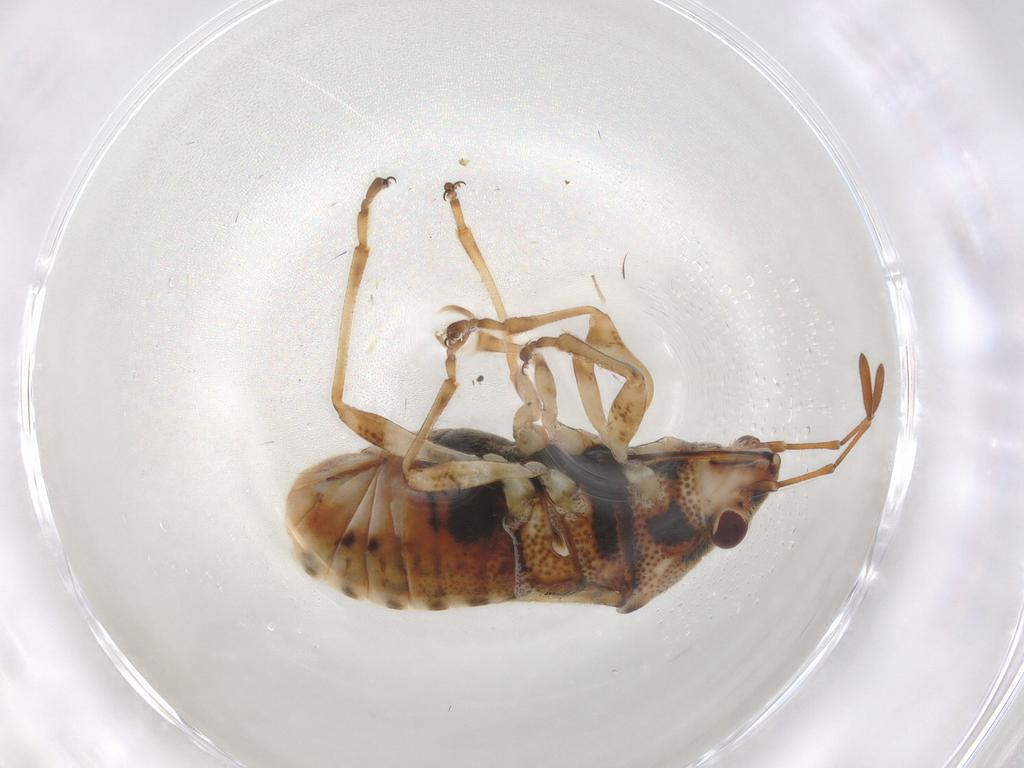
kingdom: Animalia
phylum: Arthropoda
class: Insecta
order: Hemiptera
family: Lygaeidae
